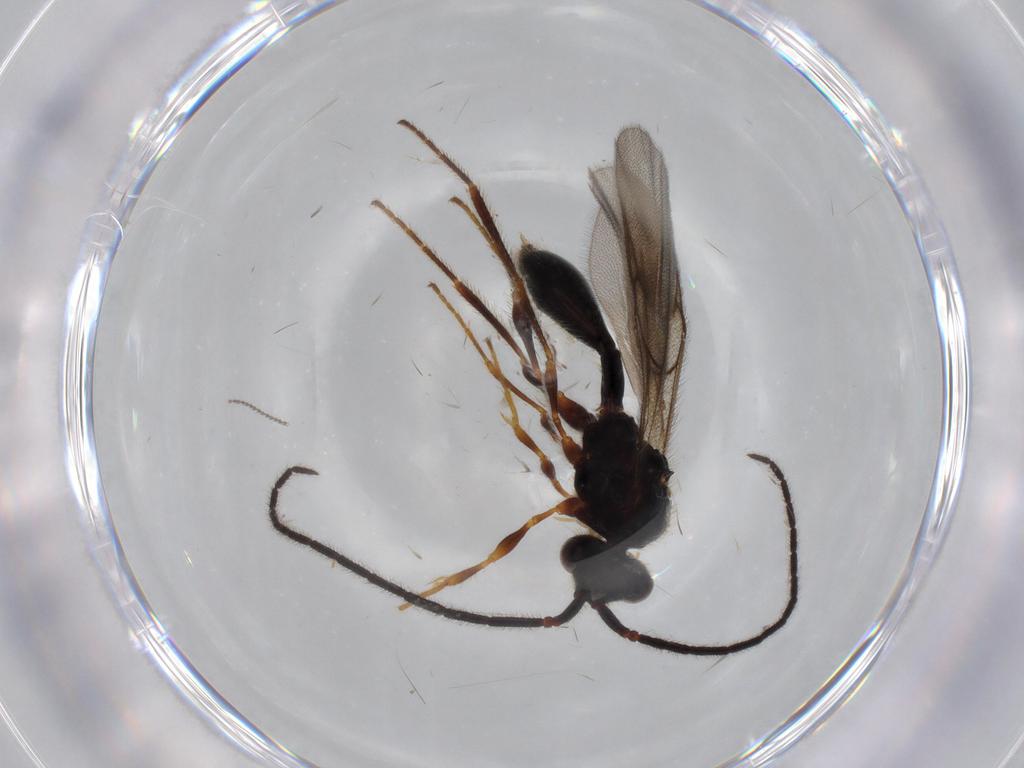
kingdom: Animalia
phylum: Arthropoda
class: Insecta
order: Hymenoptera
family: Diapriidae
